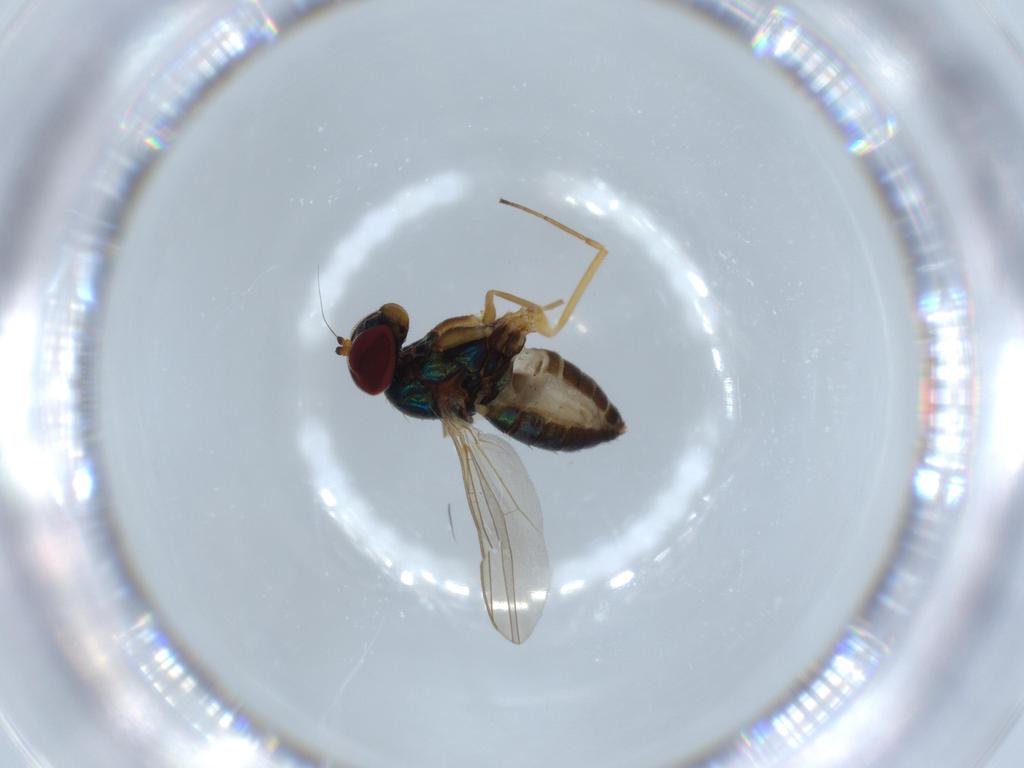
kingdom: Animalia
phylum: Arthropoda
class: Insecta
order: Diptera
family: Dolichopodidae
